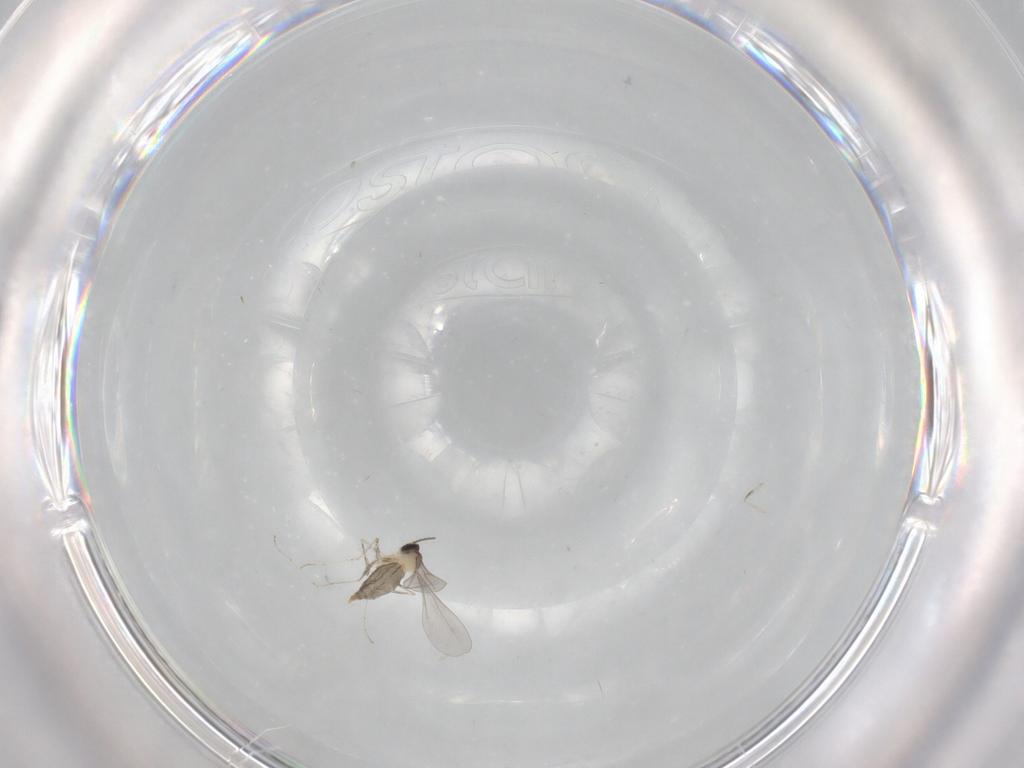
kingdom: Animalia
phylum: Arthropoda
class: Insecta
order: Diptera
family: Cecidomyiidae
